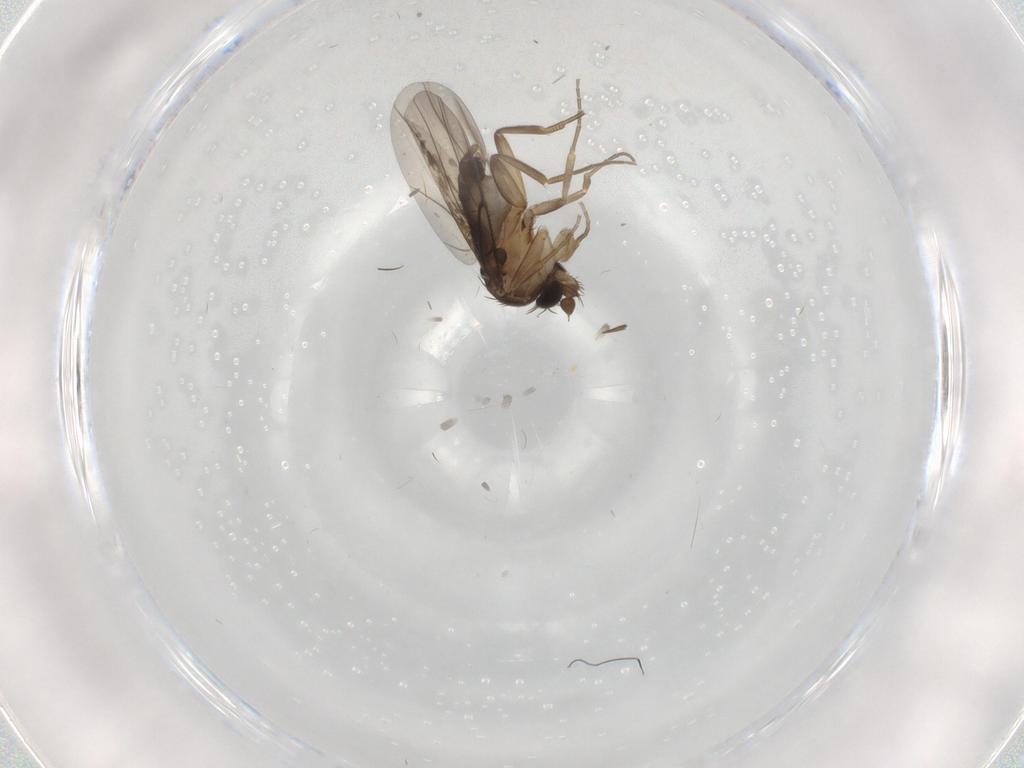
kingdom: Animalia
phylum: Arthropoda
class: Insecta
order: Diptera
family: Phoridae
